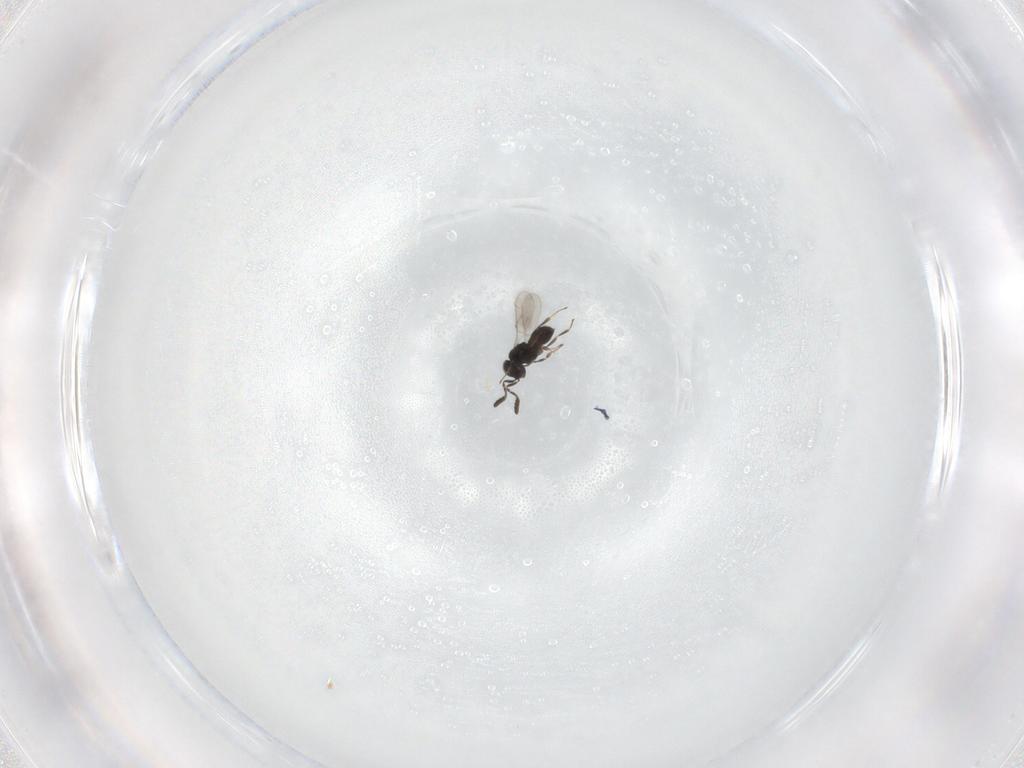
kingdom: Animalia
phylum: Arthropoda
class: Insecta
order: Hymenoptera
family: Scelionidae
